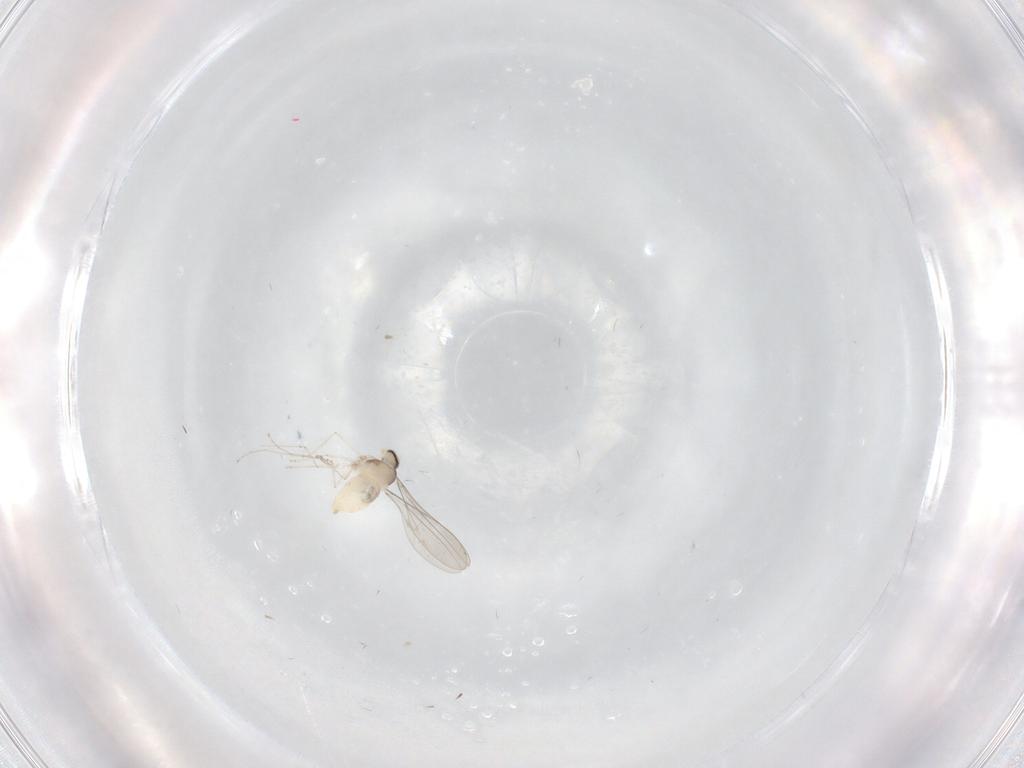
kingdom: Animalia
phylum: Arthropoda
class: Insecta
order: Diptera
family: Cecidomyiidae
